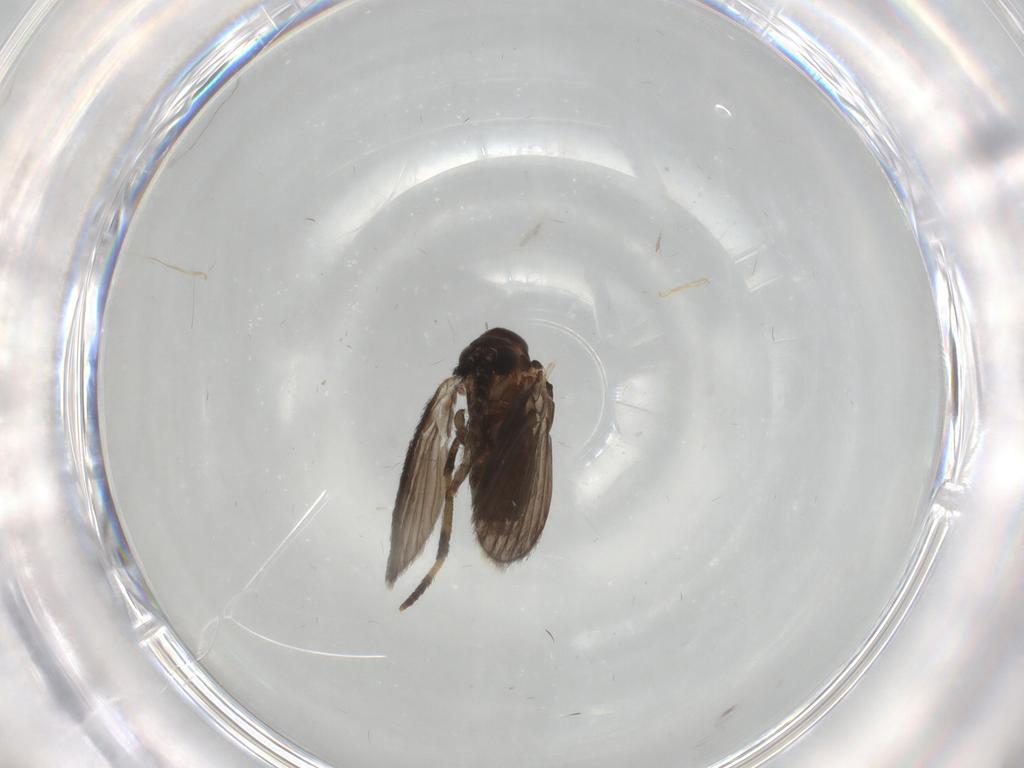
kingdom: Animalia
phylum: Arthropoda
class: Insecta
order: Diptera
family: Psychodidae
